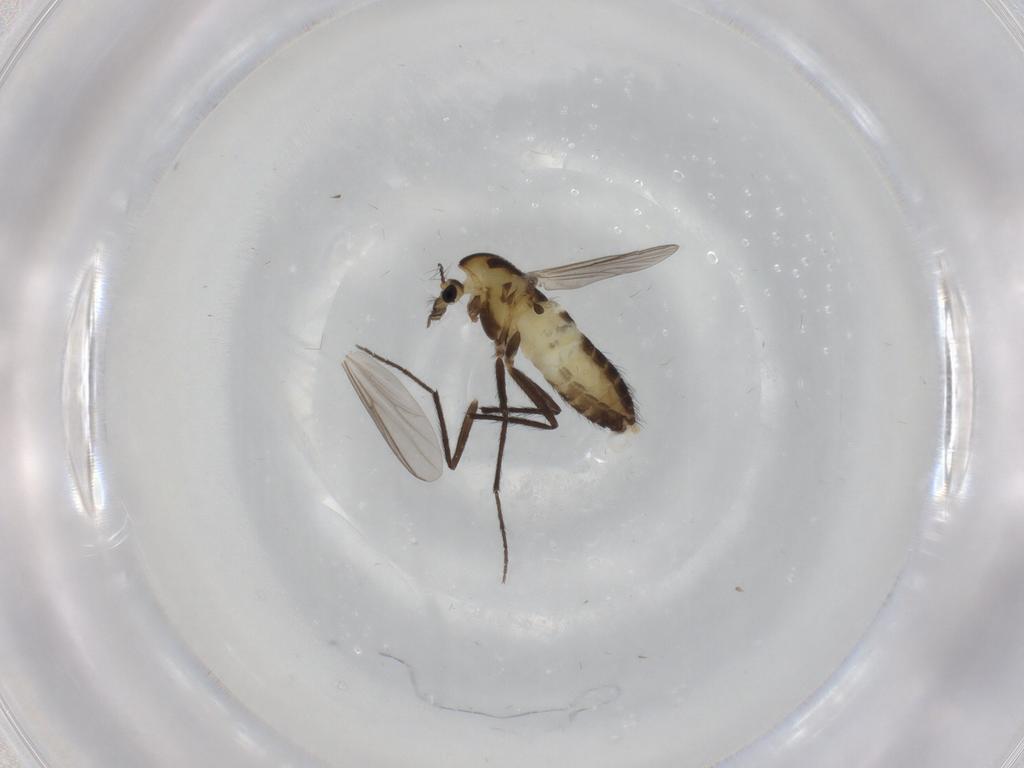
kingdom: Animalia
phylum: Arthropoda
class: Insecta
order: Diptera
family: Chironomidae
